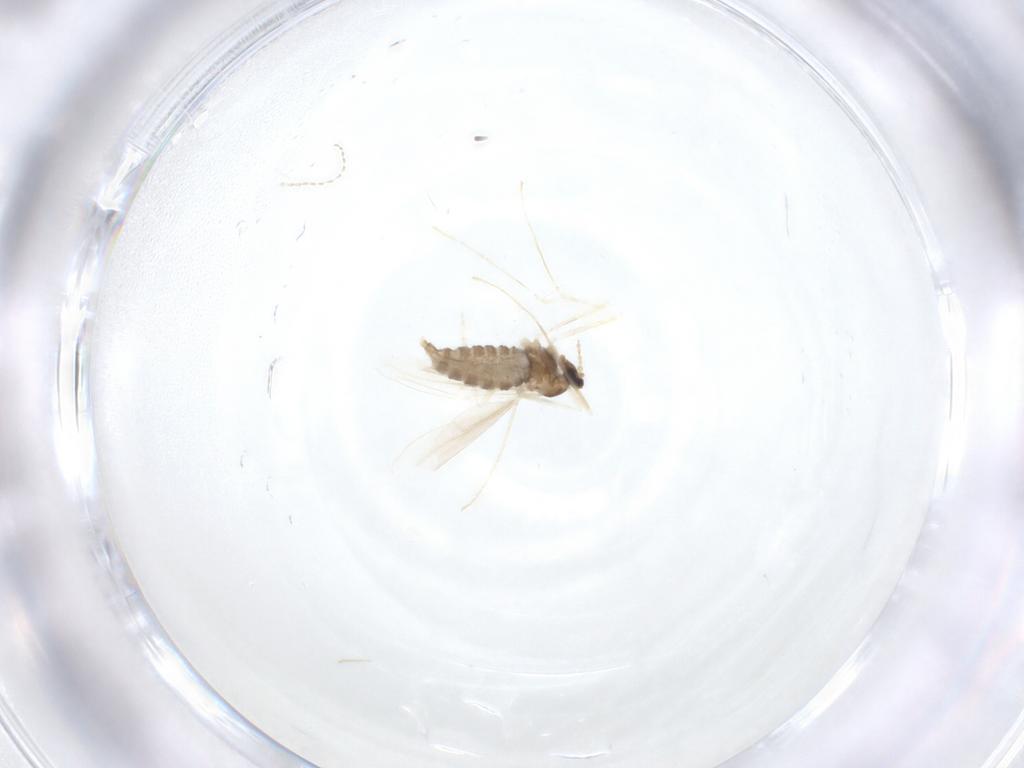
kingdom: Animalia
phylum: Arthropoda
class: Insecta
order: Diptera
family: Cecidomyiidae
